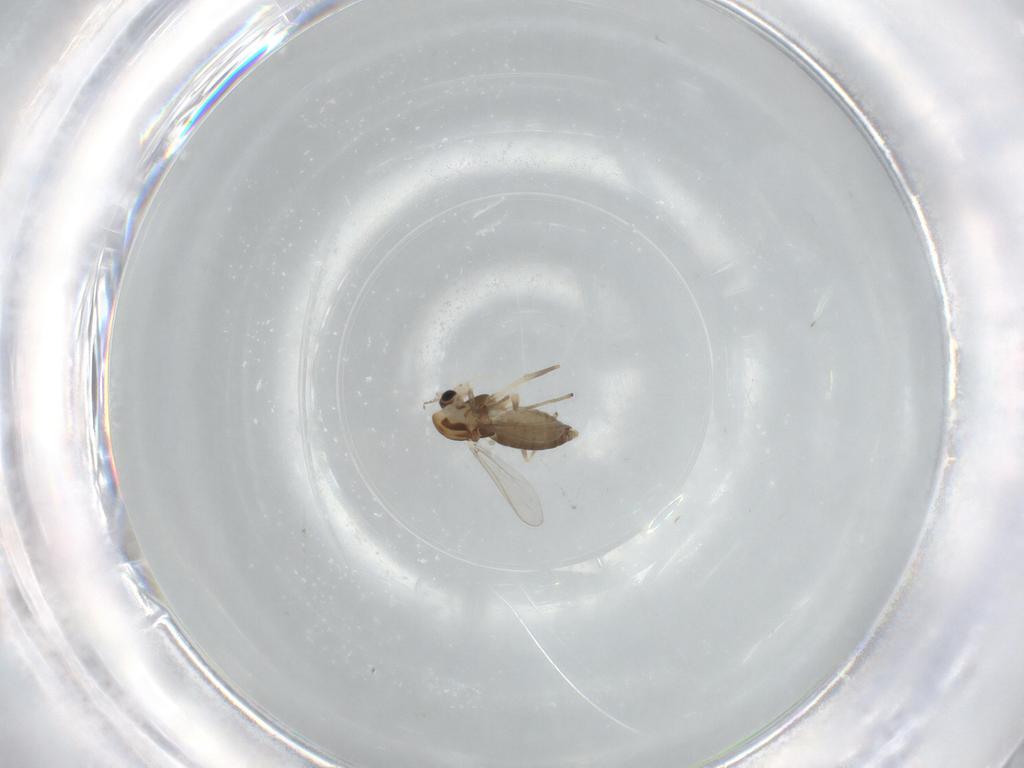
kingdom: Animalia
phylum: Arthropoda
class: Insecta
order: Diptera
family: Chironomidae
